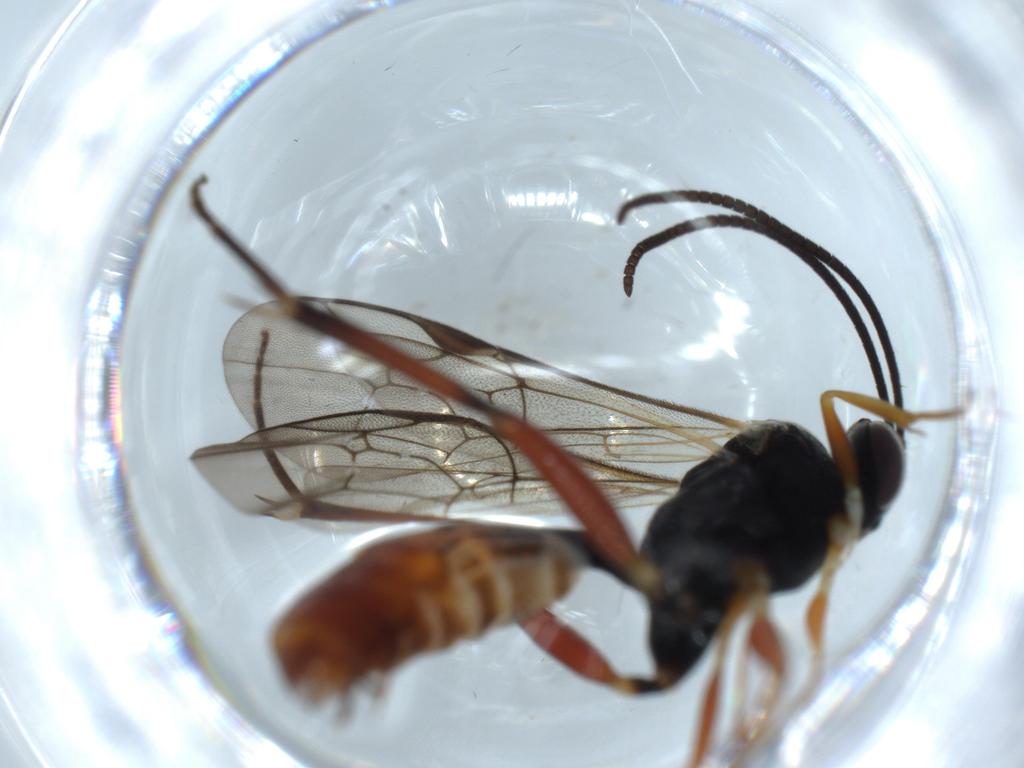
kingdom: Animalia
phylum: Arthropoda
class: Insecta
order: Hymenoptera
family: Ichneumonidae
